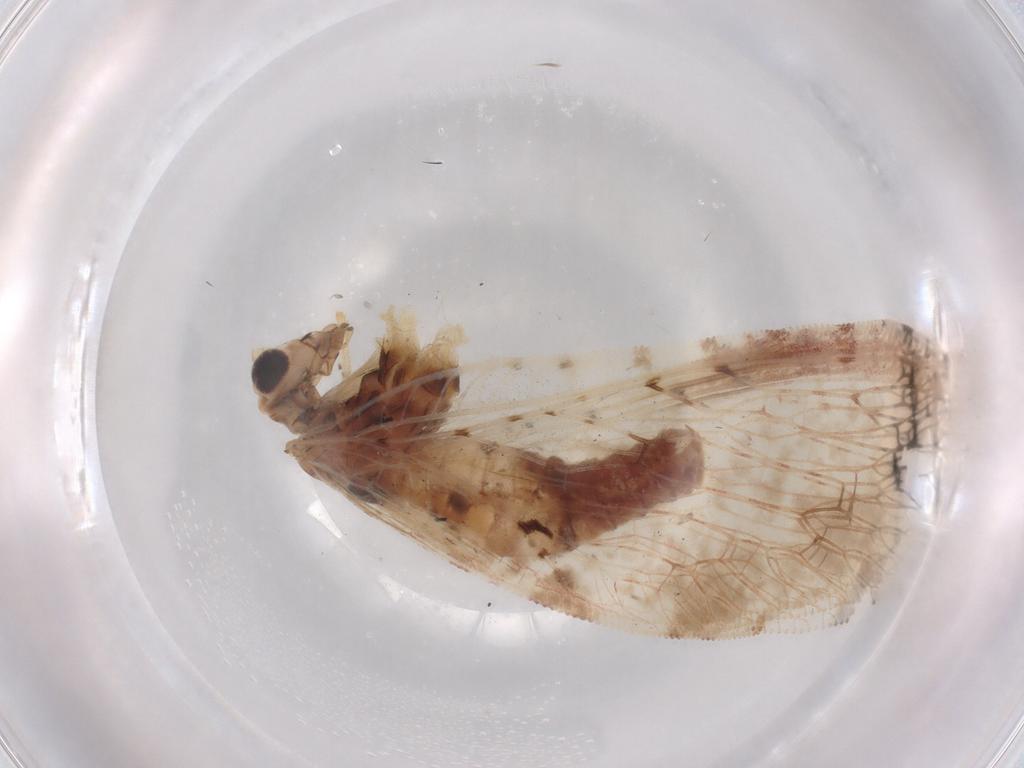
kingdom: Animalia
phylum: Arthropoda
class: Insecta
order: Neuroptera
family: Hemerobiidae
